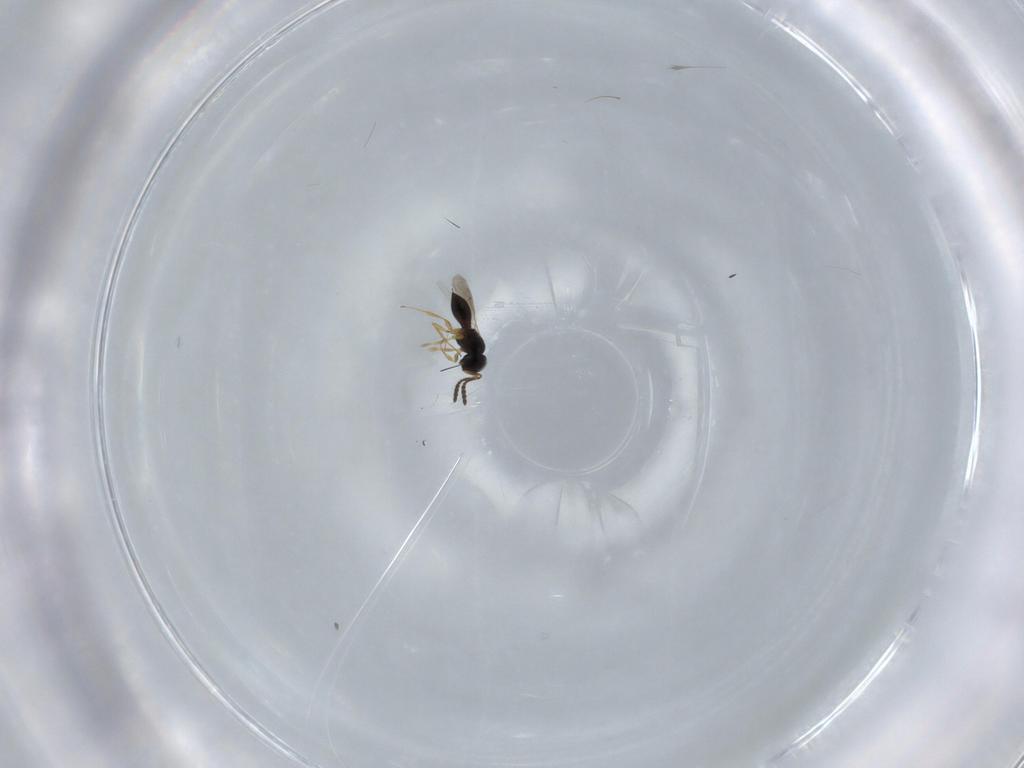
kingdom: Animalia
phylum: Arthropoda
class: Insecta
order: Hymenoptera
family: Scelionidae
